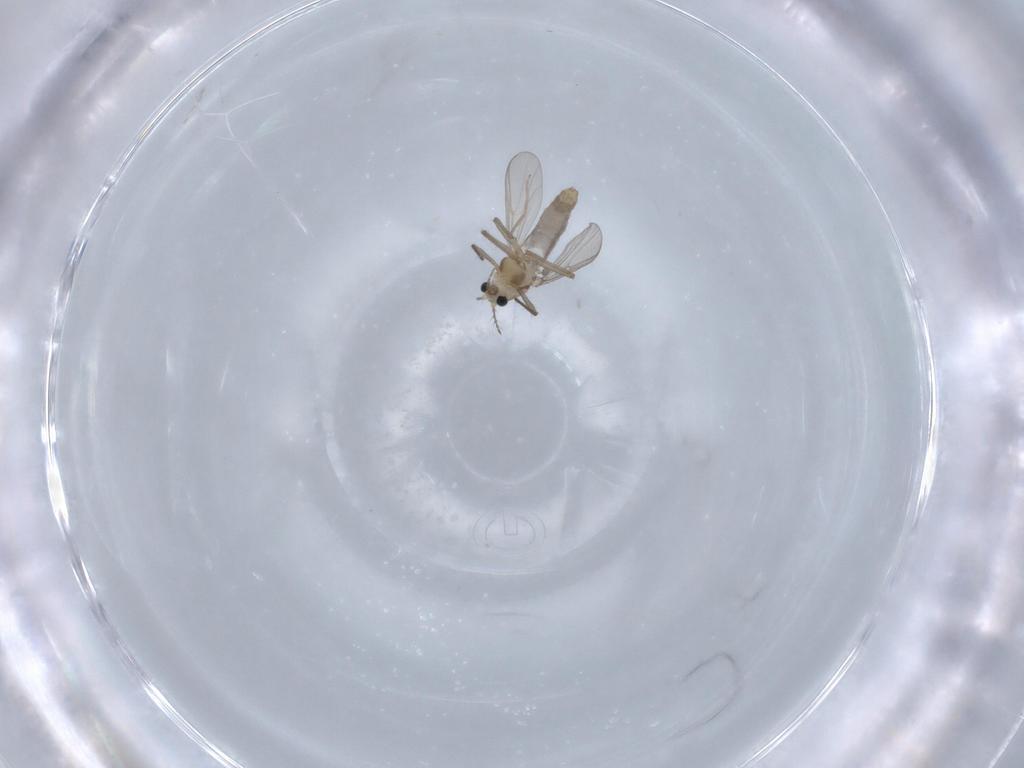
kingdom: Animalia
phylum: Arthropoda
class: Insecta
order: Diptera
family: Chironomidae
